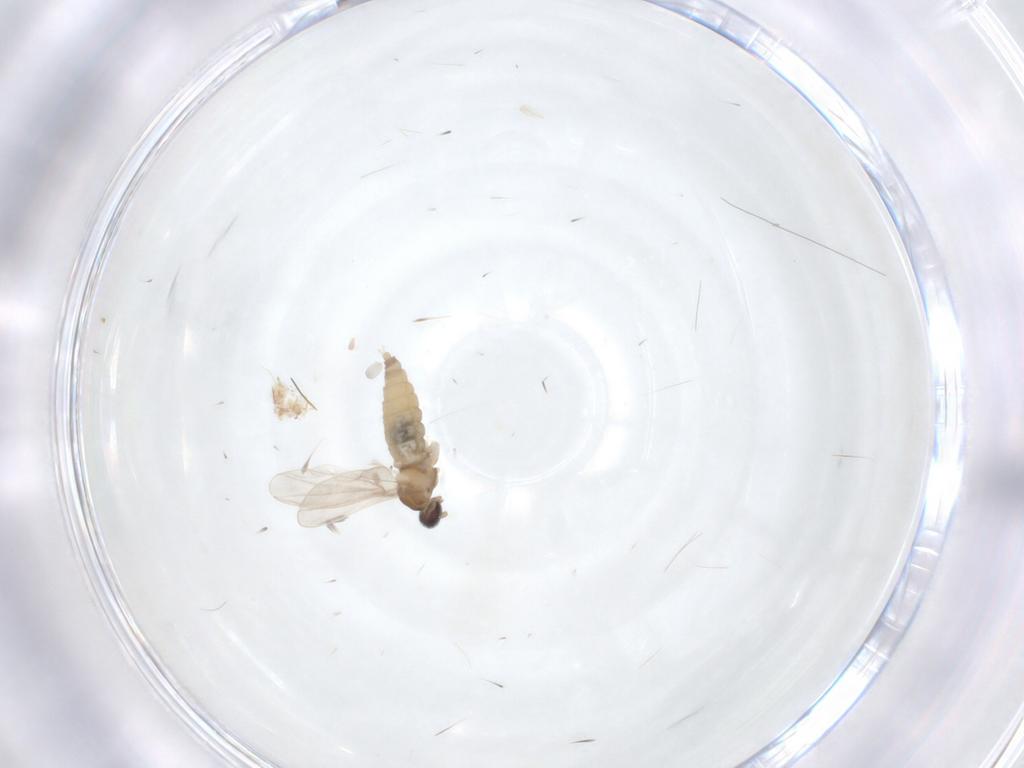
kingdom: Animalia
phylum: Arthropoda
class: Insecta
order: Diptera
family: Cecidomyiidae
